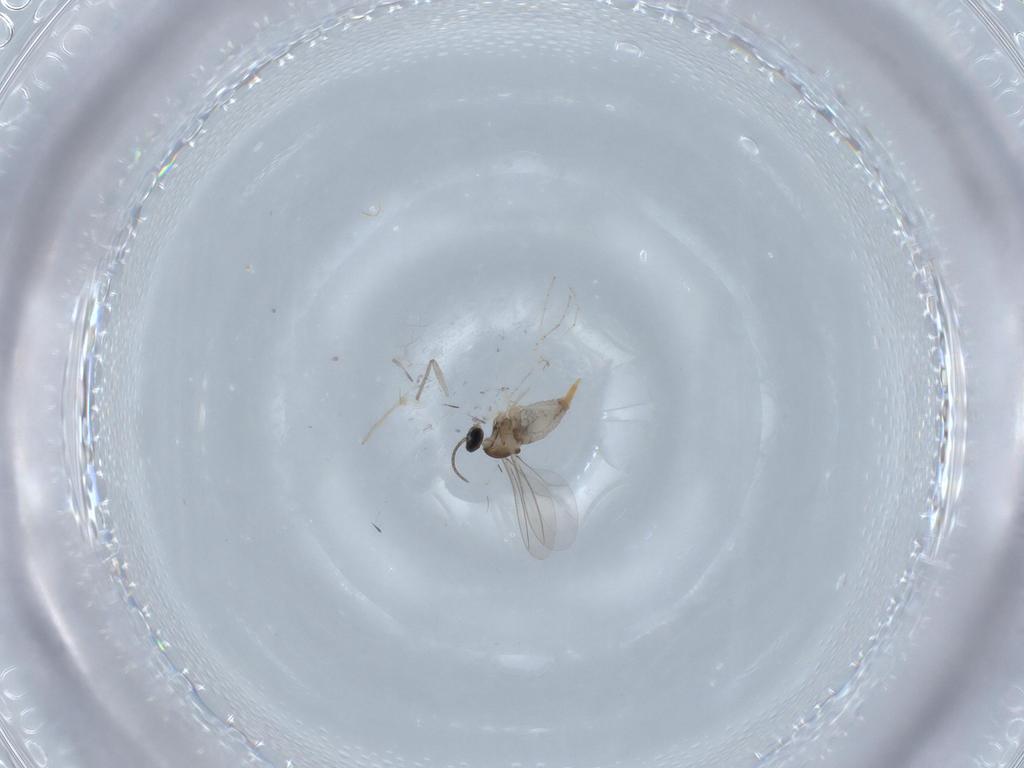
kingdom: Animalia
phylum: Arthropoda
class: Insecta
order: Diptera
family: Cecidomyiidae
